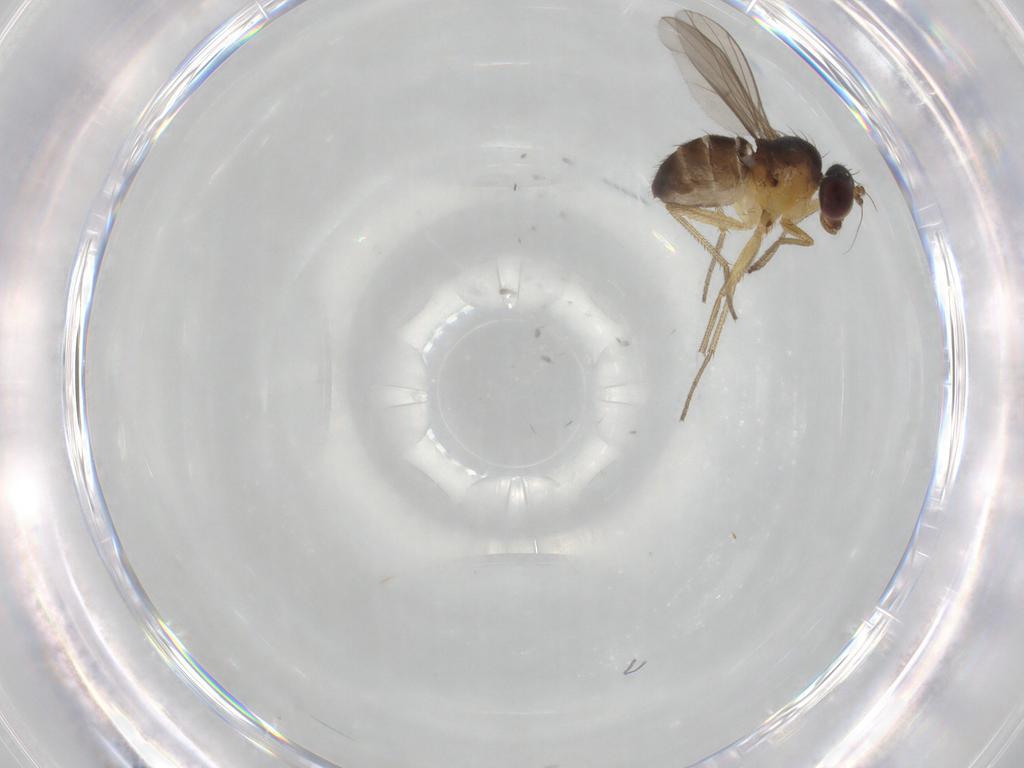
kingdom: Animalia
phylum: Arthropoda
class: Insecta
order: Diptera
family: Dolichopodidae
